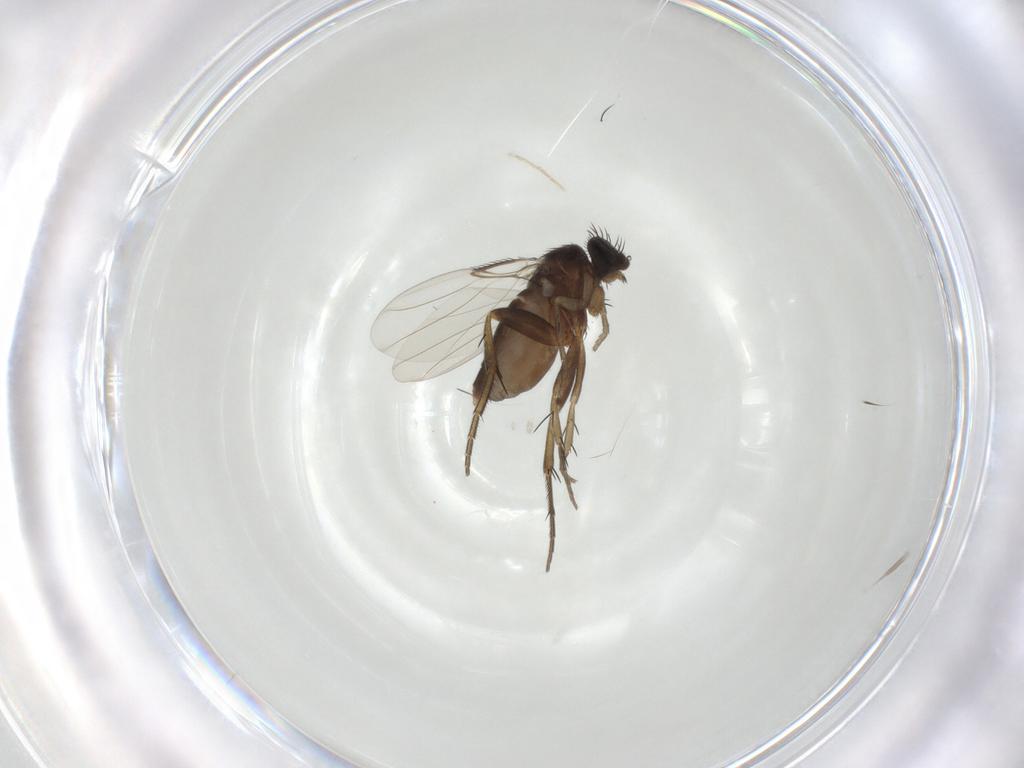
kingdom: Animalia
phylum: Arthropoda
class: Insecta
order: Diptera
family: Phoridae
